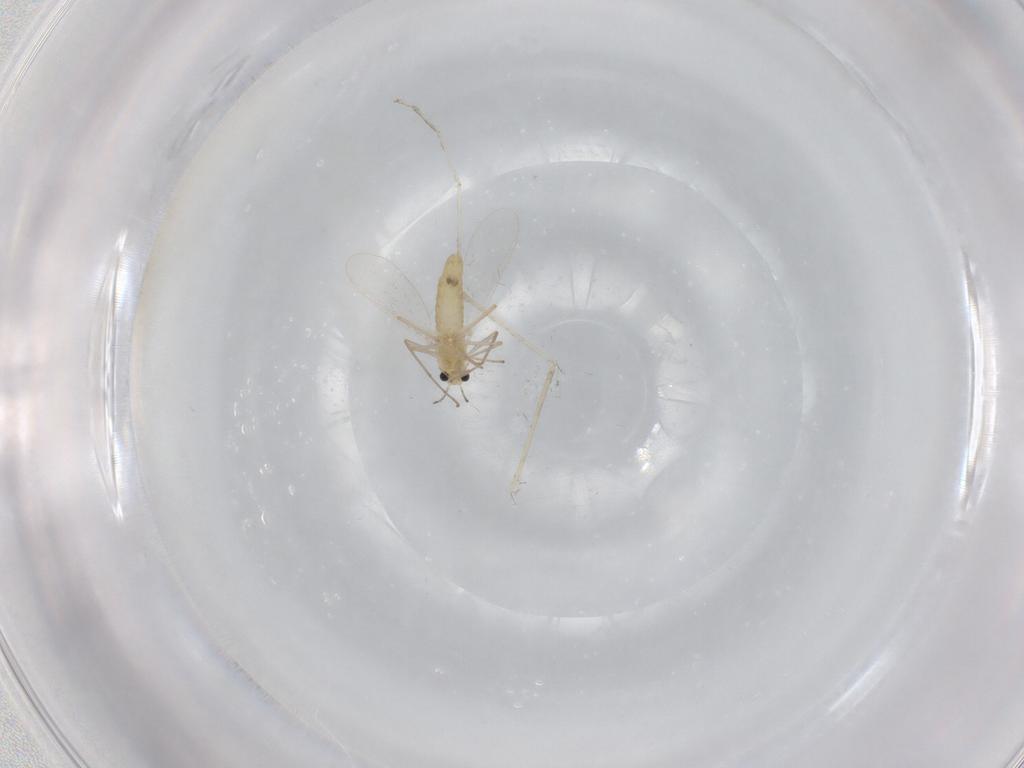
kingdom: Animalia
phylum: Arthropoda
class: Insecta
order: Diptera
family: Chironomidae
